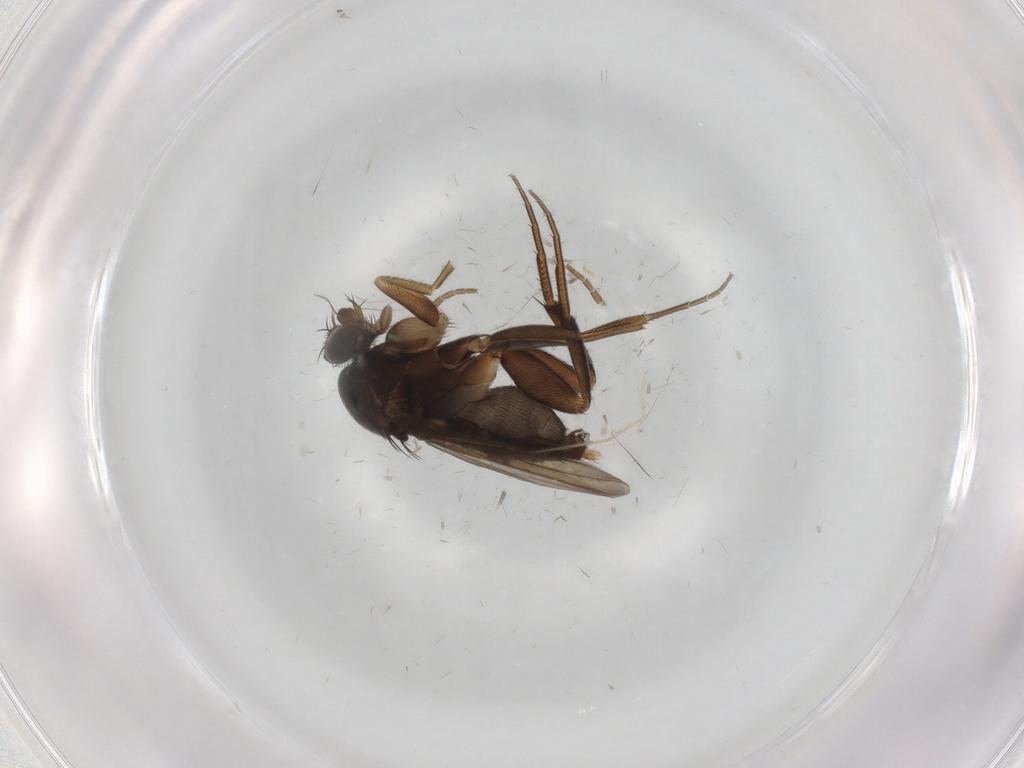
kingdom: Animalia
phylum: Arthropoda
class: Insecta
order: Diptera
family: Phoridae
